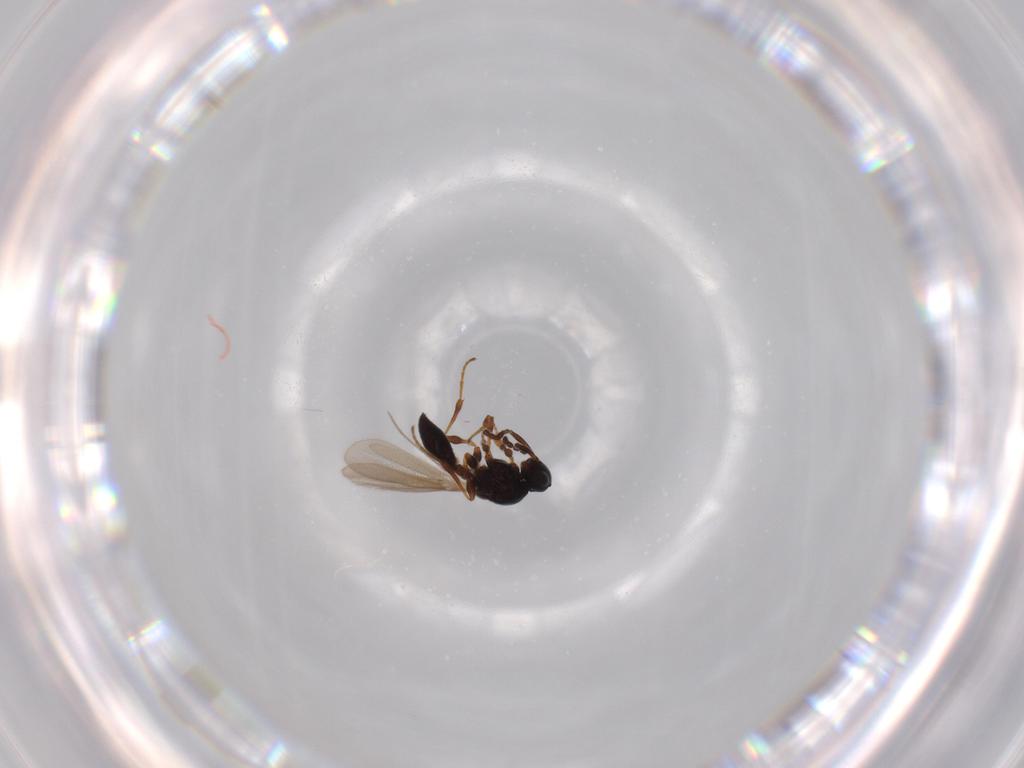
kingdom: Animalia
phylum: Arthropoda
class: Insecta
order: Hymenoptera
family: Platygastridae
